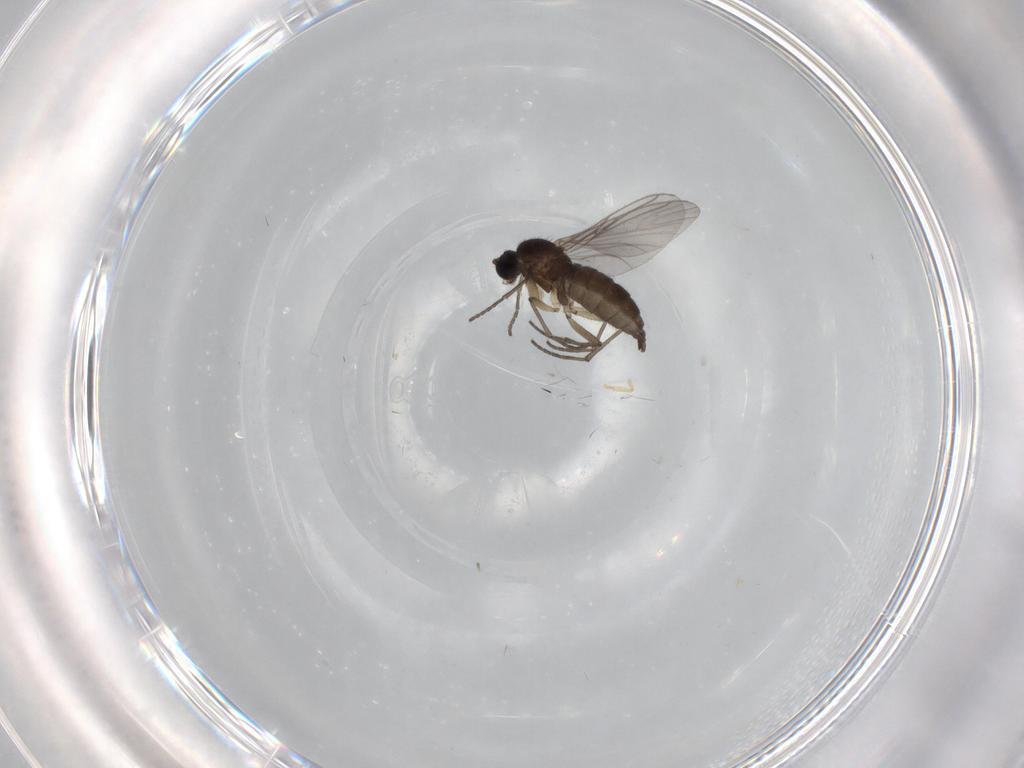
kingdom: Animalia
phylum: Arthropoda
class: Insecta
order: Diptera
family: Sciaridae
